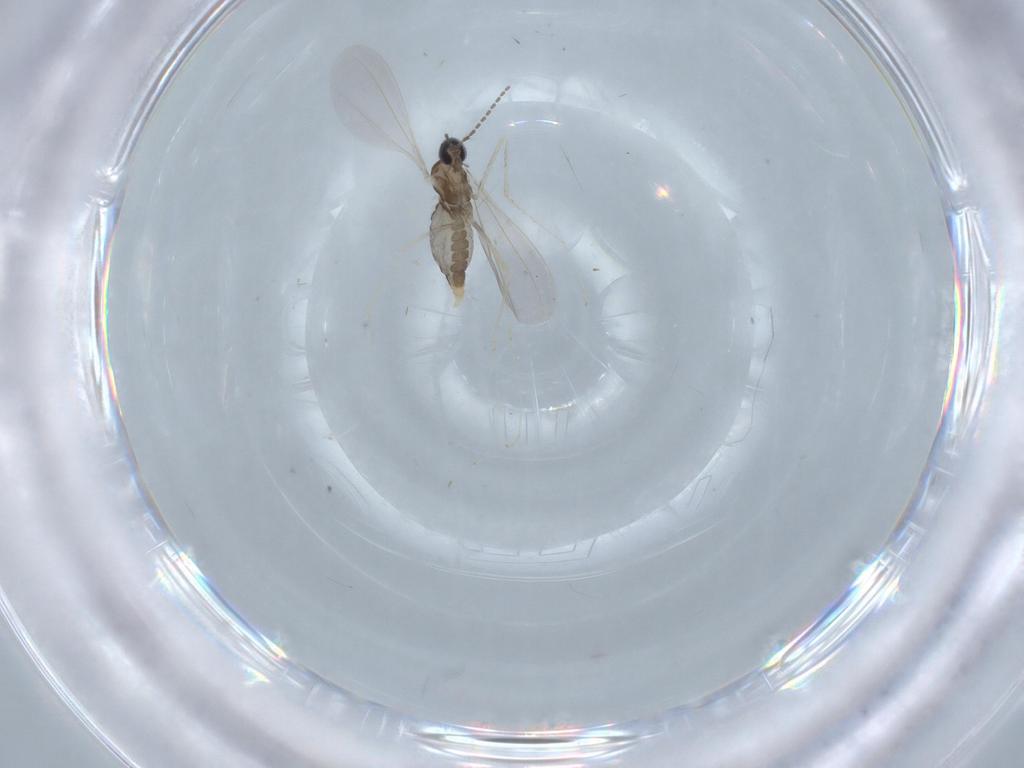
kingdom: Animalia
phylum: Arthropoda
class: Insecta
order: Diptera
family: Cecidomyiidae
